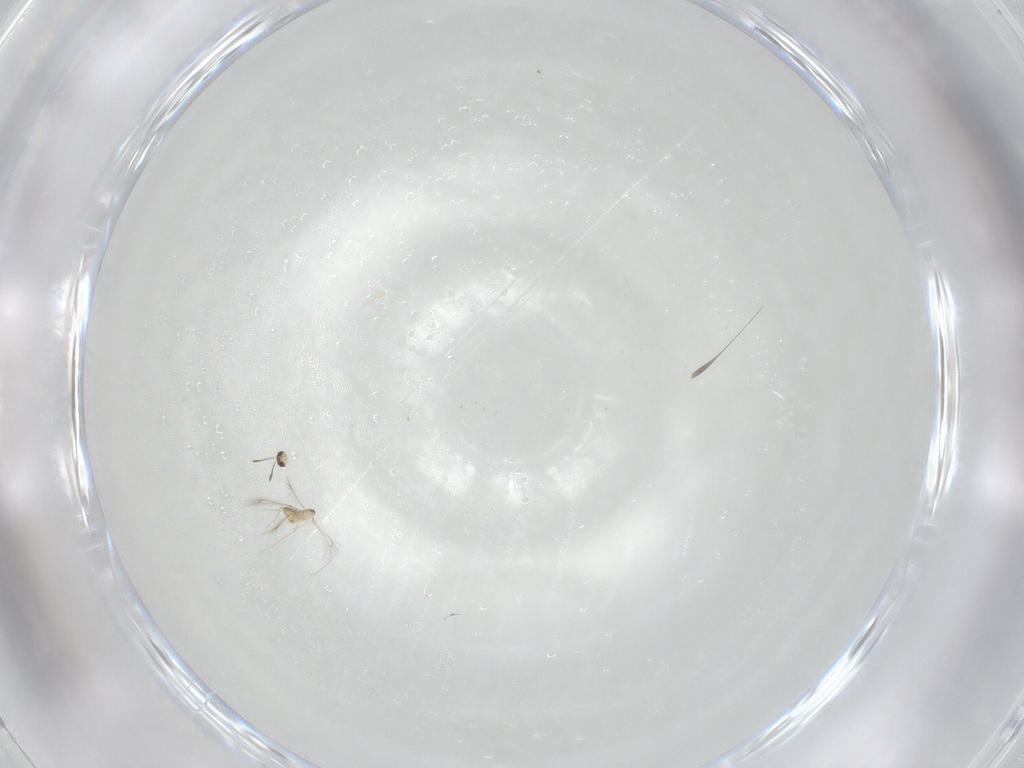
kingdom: Animalia
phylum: Arthropoda
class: Insecta
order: Hymenoptera
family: Mymaridae
